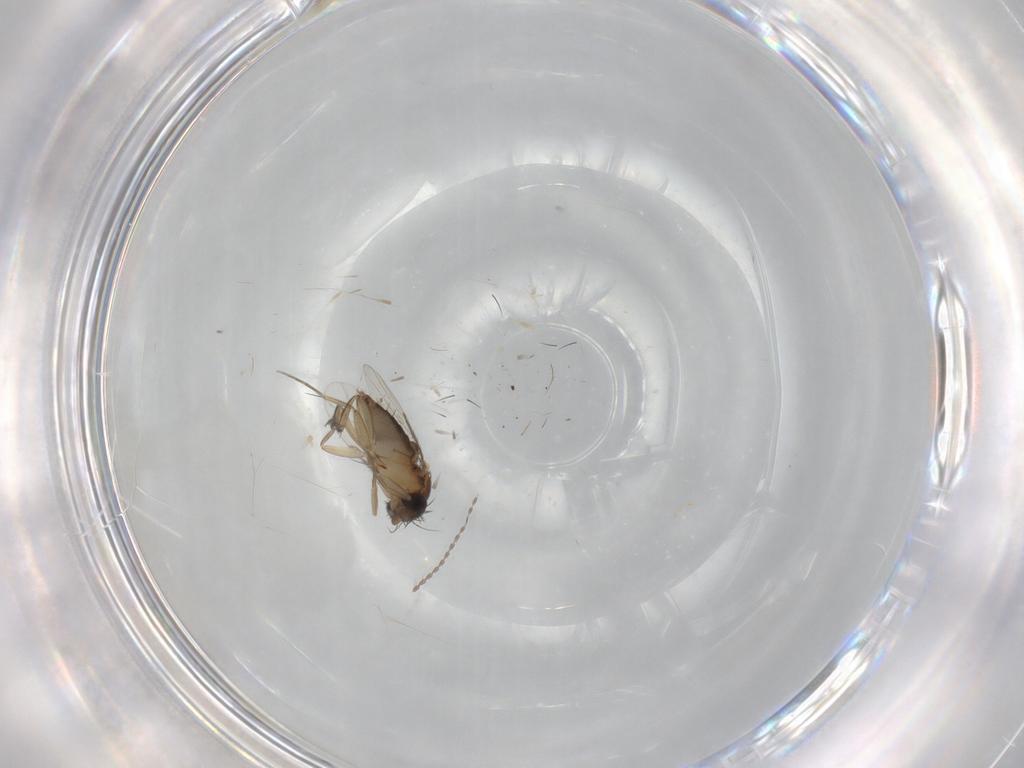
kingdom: Animalia
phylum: Arthropoda
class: Insecta
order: Diptera
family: Phoridae
